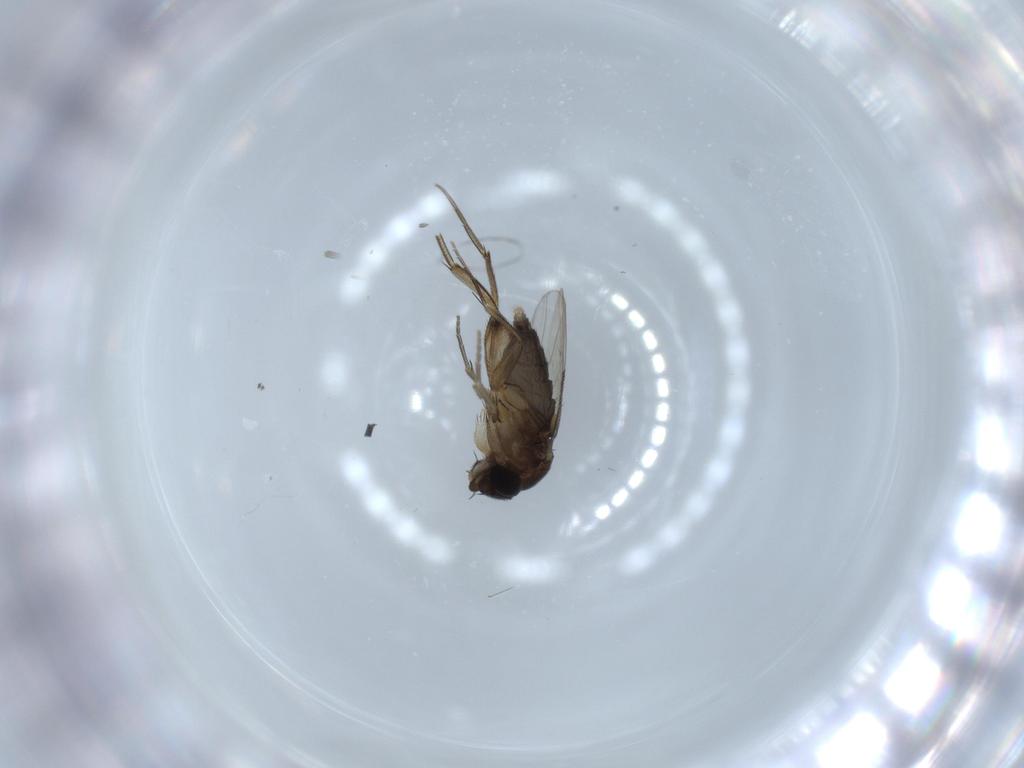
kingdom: Animalia
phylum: Arthropoda
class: Insecta
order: Diptera
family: Phoridae
